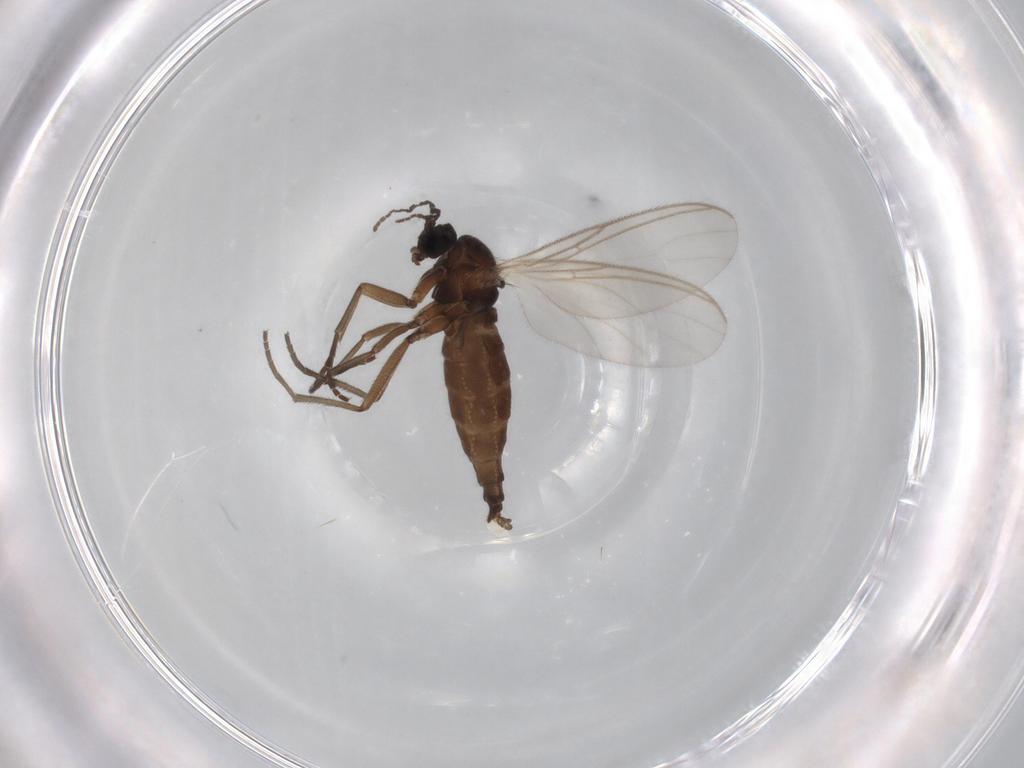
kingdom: Animalia
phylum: Arthropoda
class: Insecta
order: Diptera
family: Sciaridae
